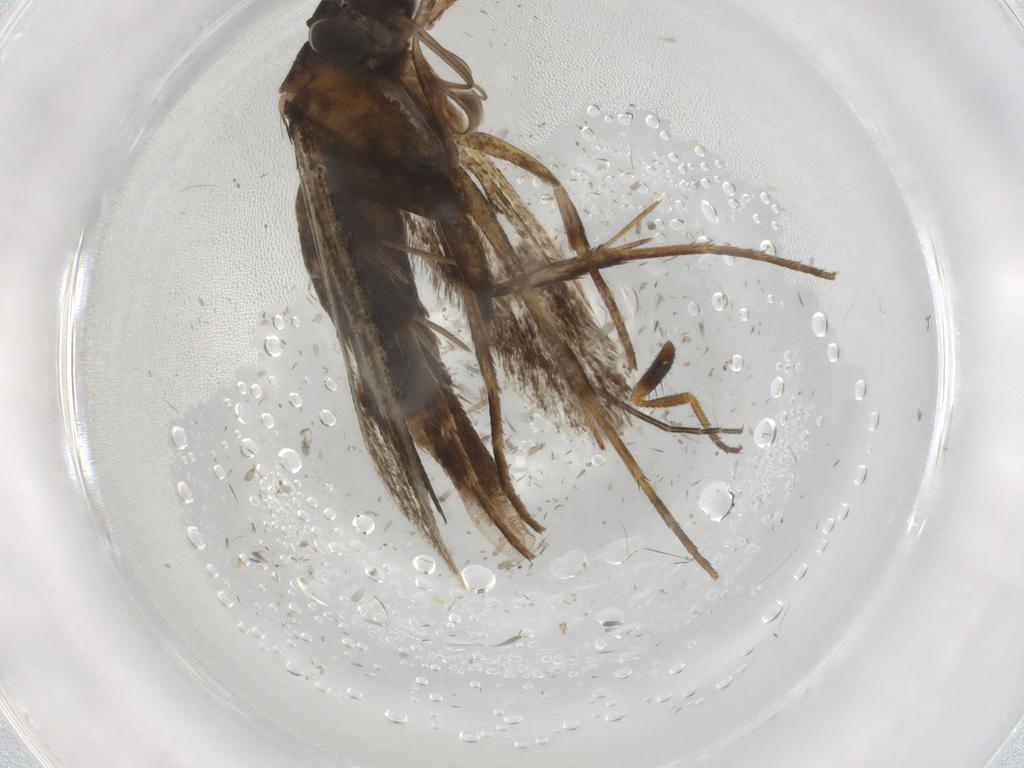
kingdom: Animalia
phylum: Arthropoda
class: Insecta
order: Lepidoptera
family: Sesiidae
